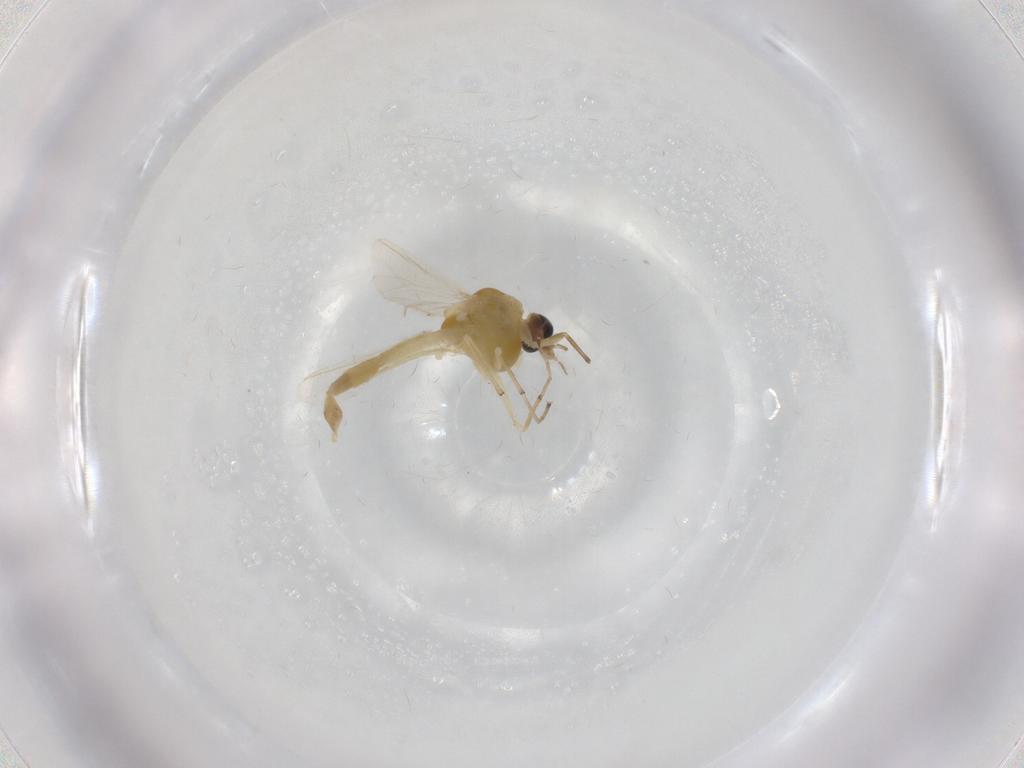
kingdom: Animalia
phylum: Arthropoda
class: Insecta
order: Diptera
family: Chironomidae
